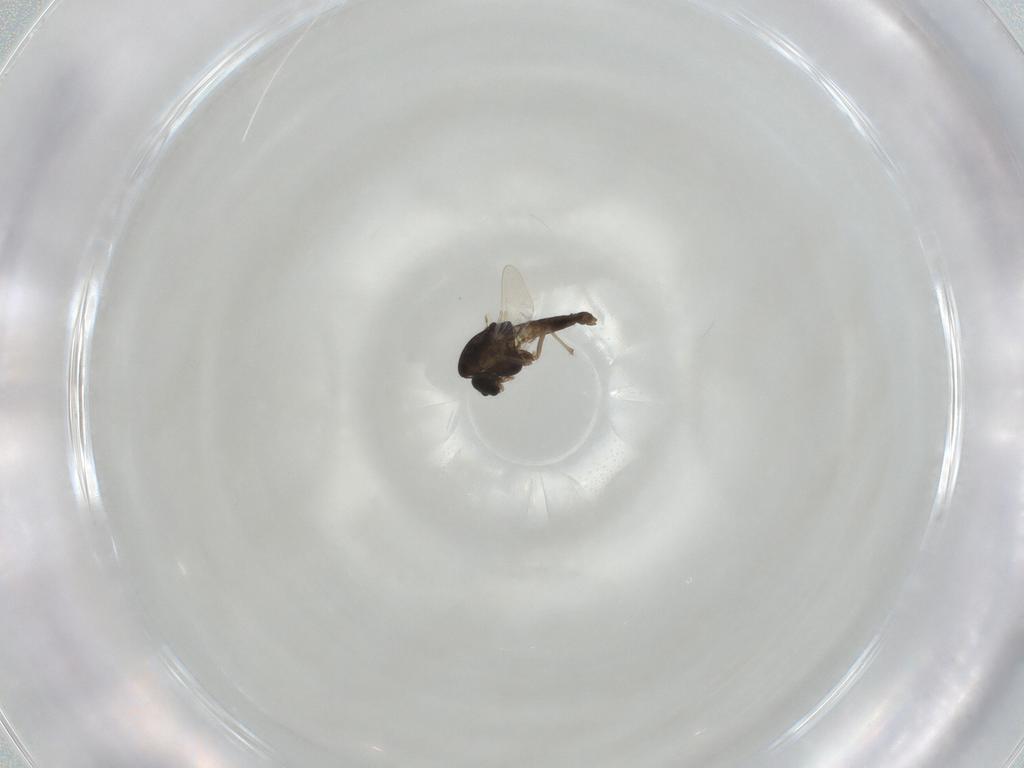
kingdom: Animalia
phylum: Arthropoda
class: Insecta
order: Diptera
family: Chironomidae
